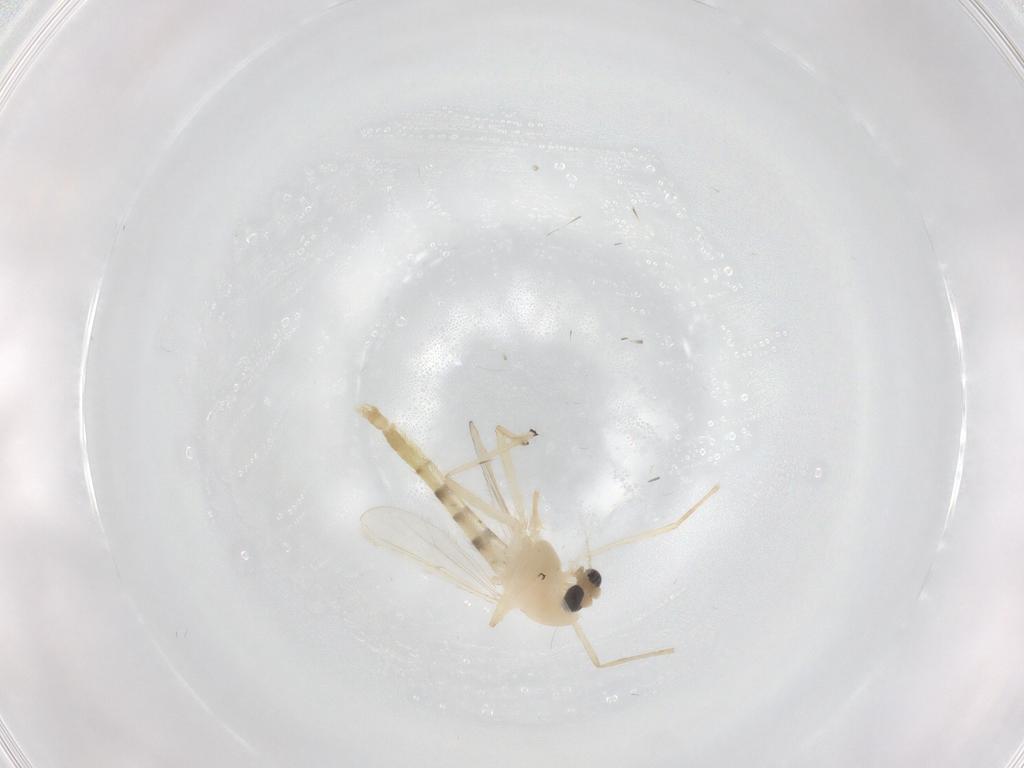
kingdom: Animalia
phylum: Arthropoda
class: Insecta
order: Diptera
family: Chironomidae
